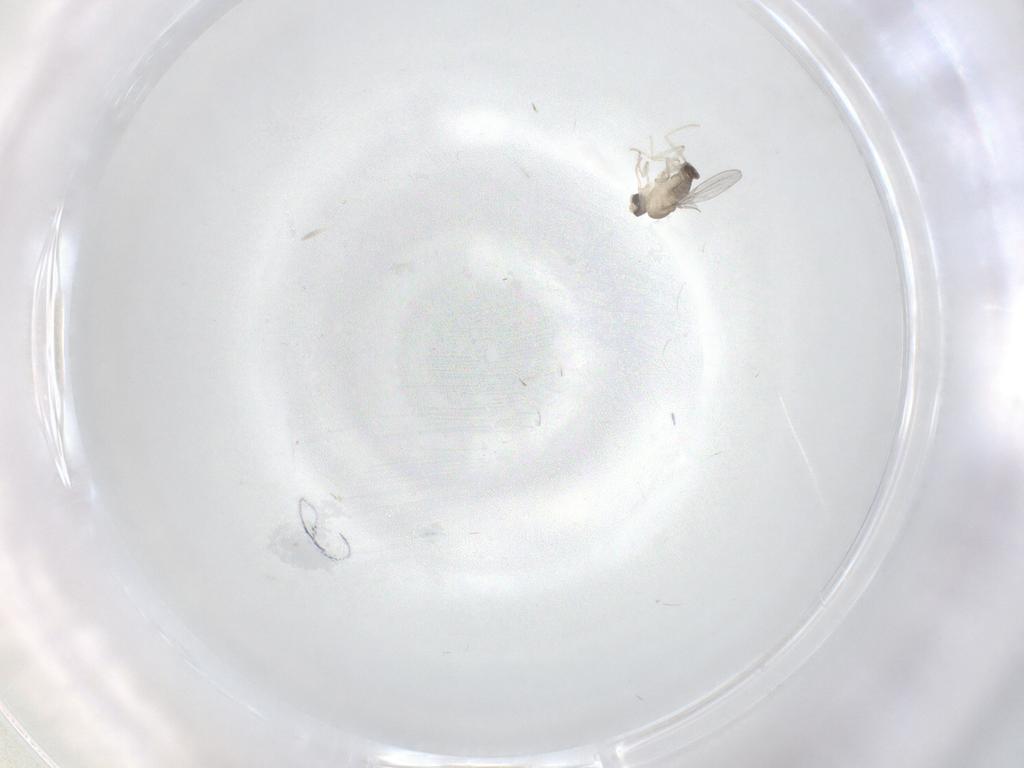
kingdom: Animalia
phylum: Arthropoda
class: Insecta
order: Diptera
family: Cecidomyiidae
